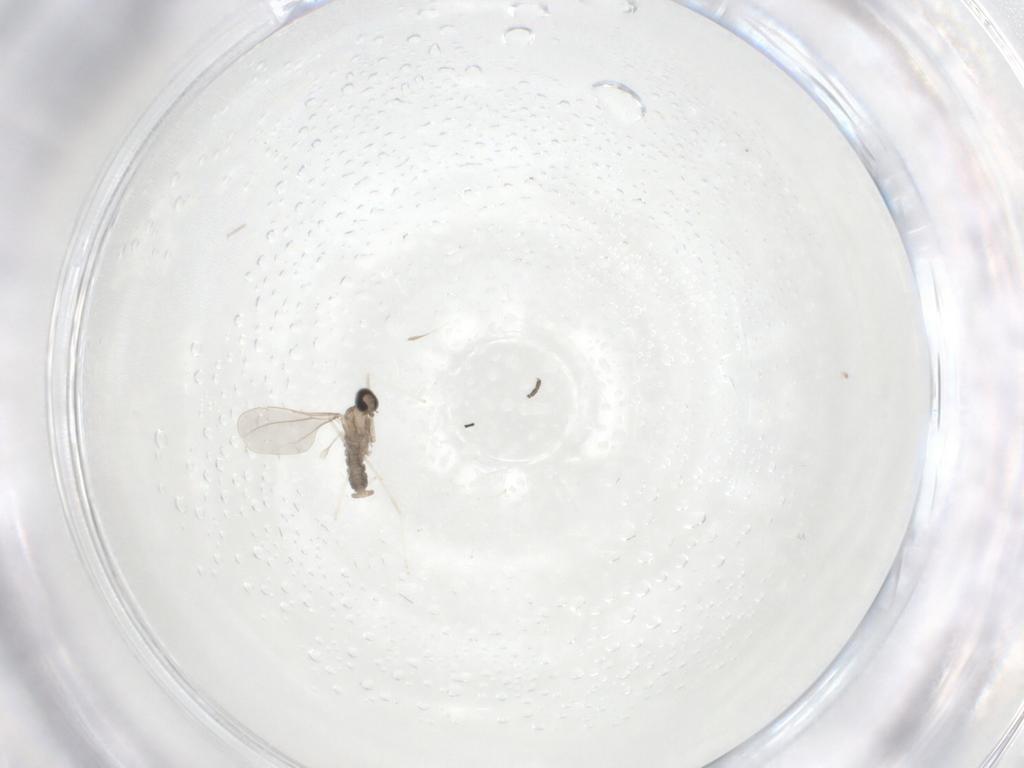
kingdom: Animalia
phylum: Arthropoda
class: Insecta
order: Diptera
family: Cecidomyiidae
